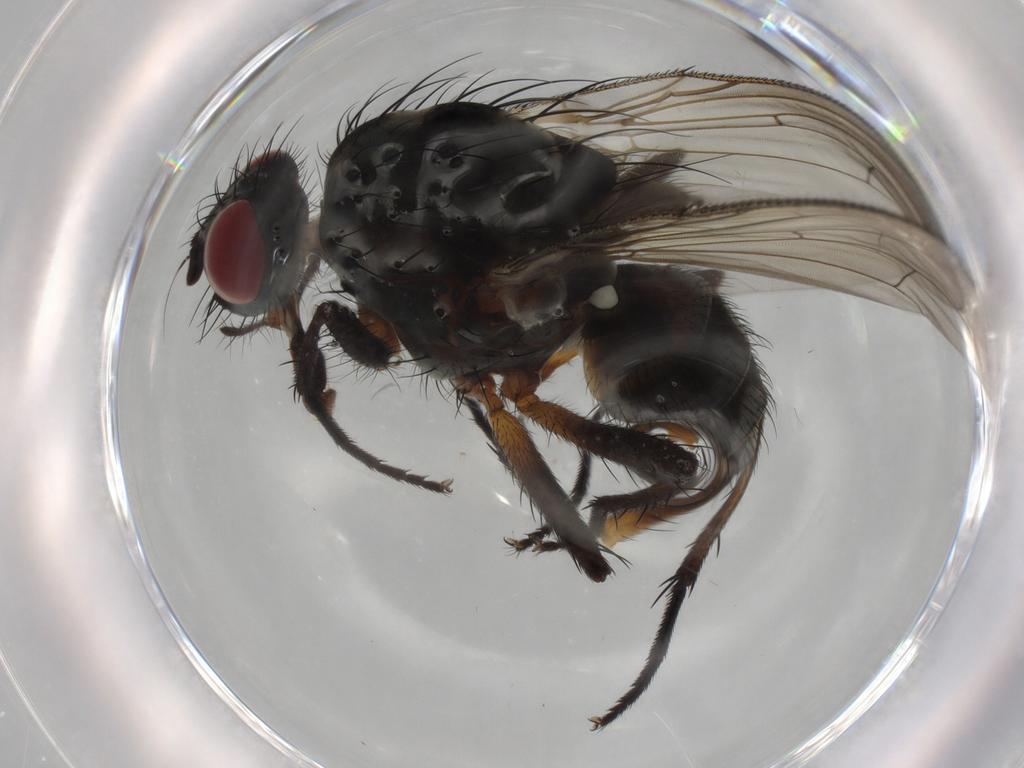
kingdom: Animalia
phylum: Arthropoda
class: Insecta
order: Diptera
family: Anthomyiidae
